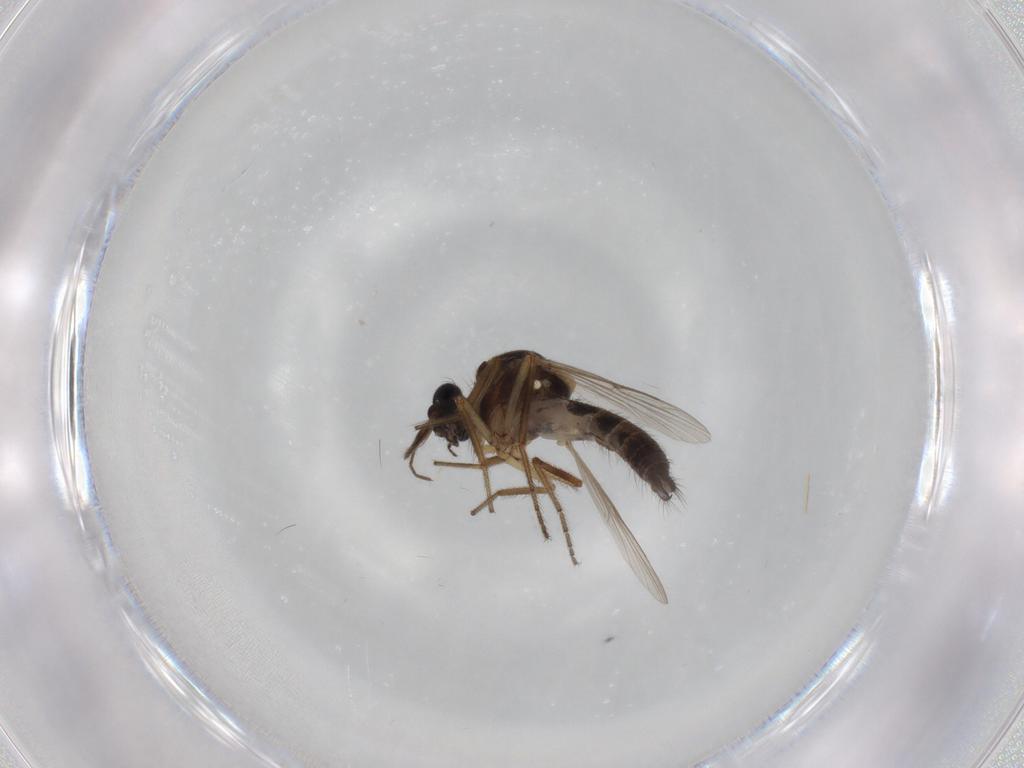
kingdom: Animalia
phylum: Arthropoda
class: Insecta
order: Diptera
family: Ceratopogonidae
